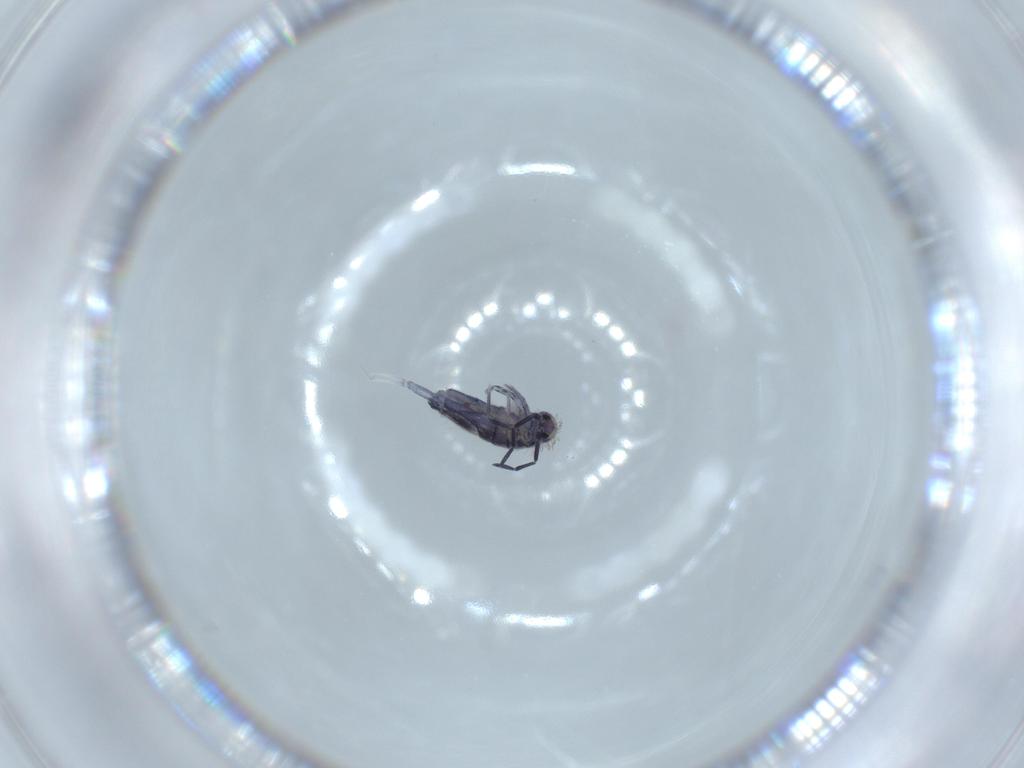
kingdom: Animalia
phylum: Arthropoda
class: Collembola
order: Entomobryomorpha
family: Entomobryidae
